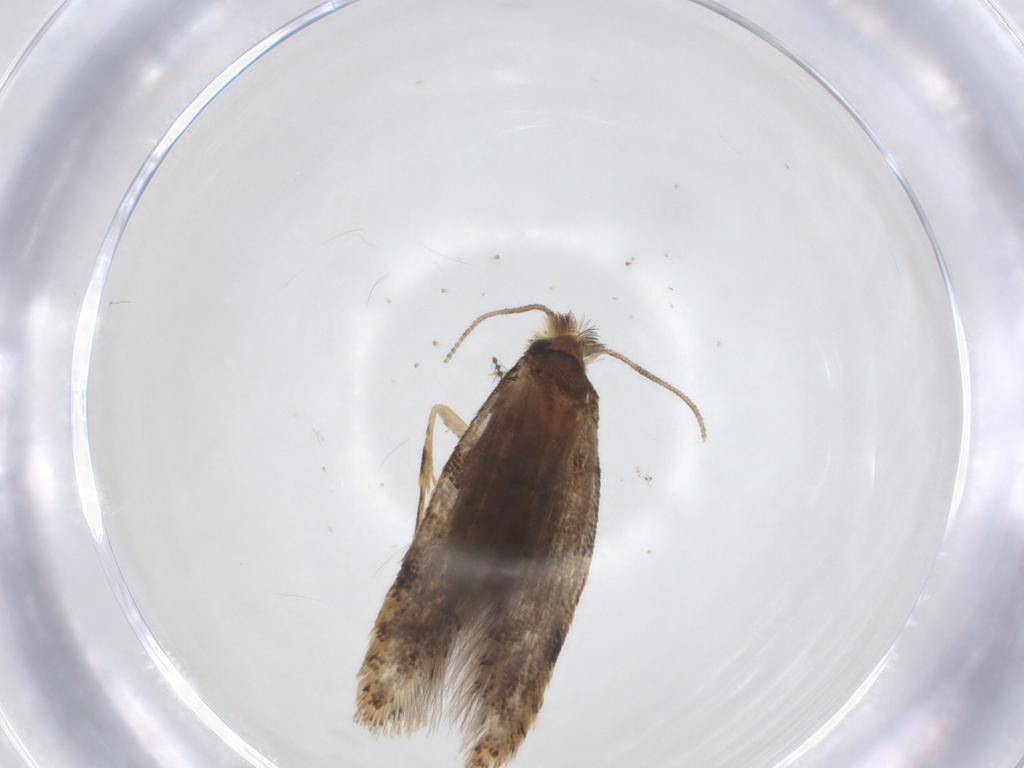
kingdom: Animalia
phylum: Arthropoda
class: Insecta
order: Lepidoptera
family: Tineidae
